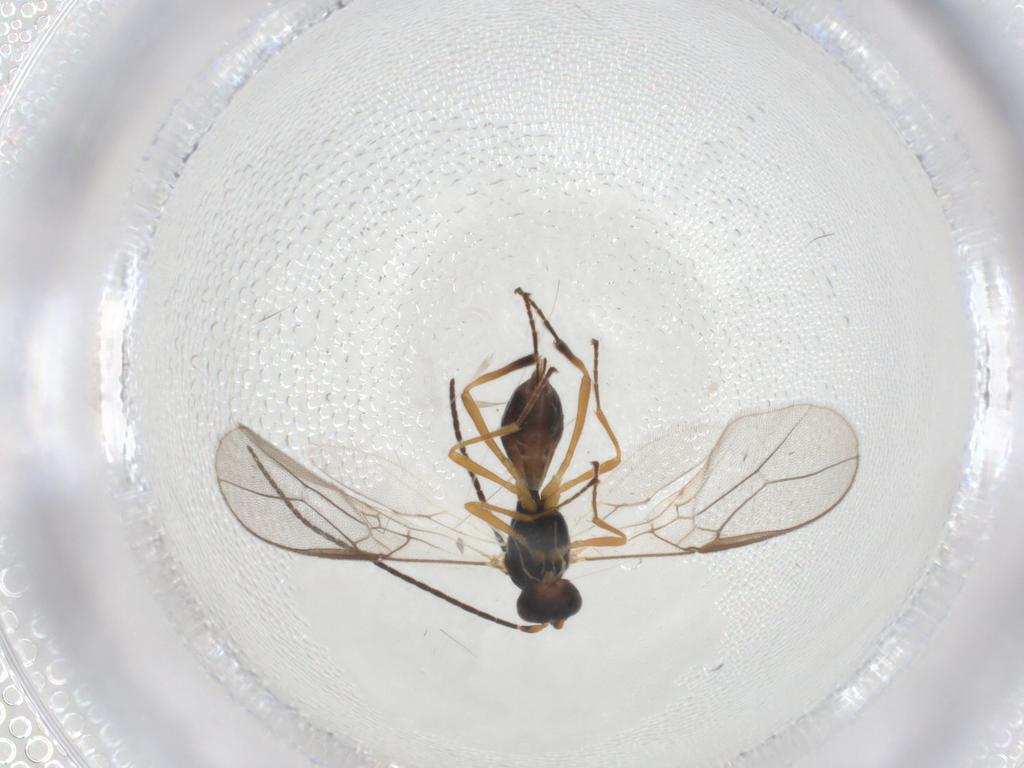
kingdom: Animalia
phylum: Arthropoda
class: Insecta
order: Hymenoptera
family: Braconidae
